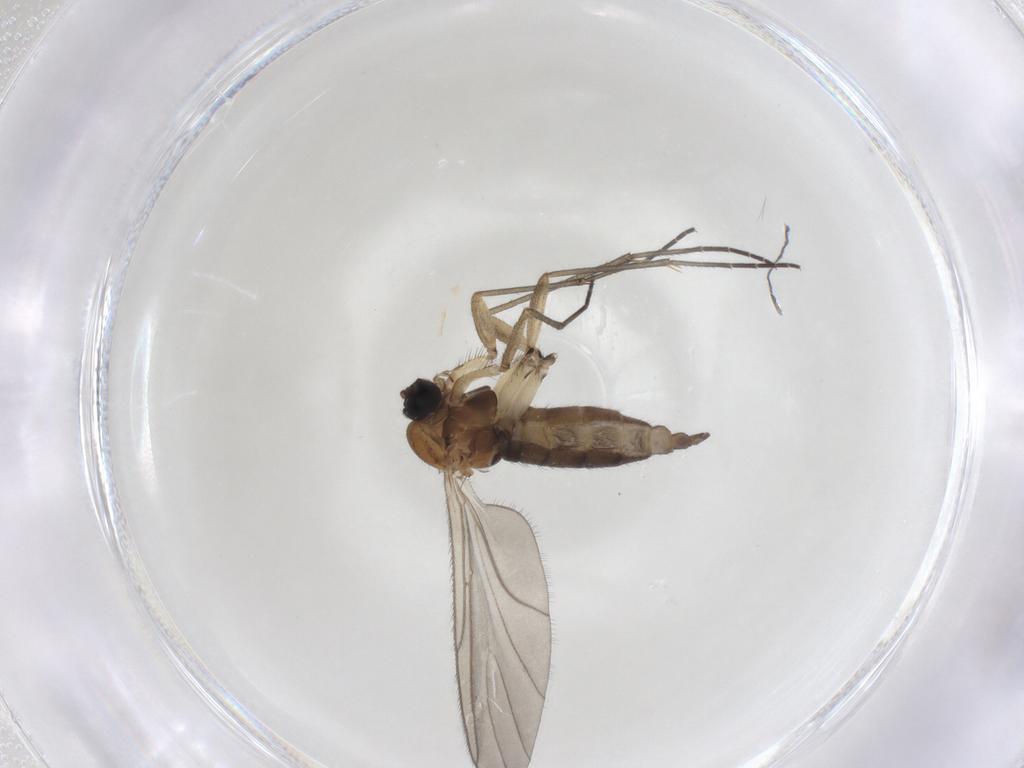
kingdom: Animalia
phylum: Arthropoda
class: Insecta
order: Diptera
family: Sciaridae
